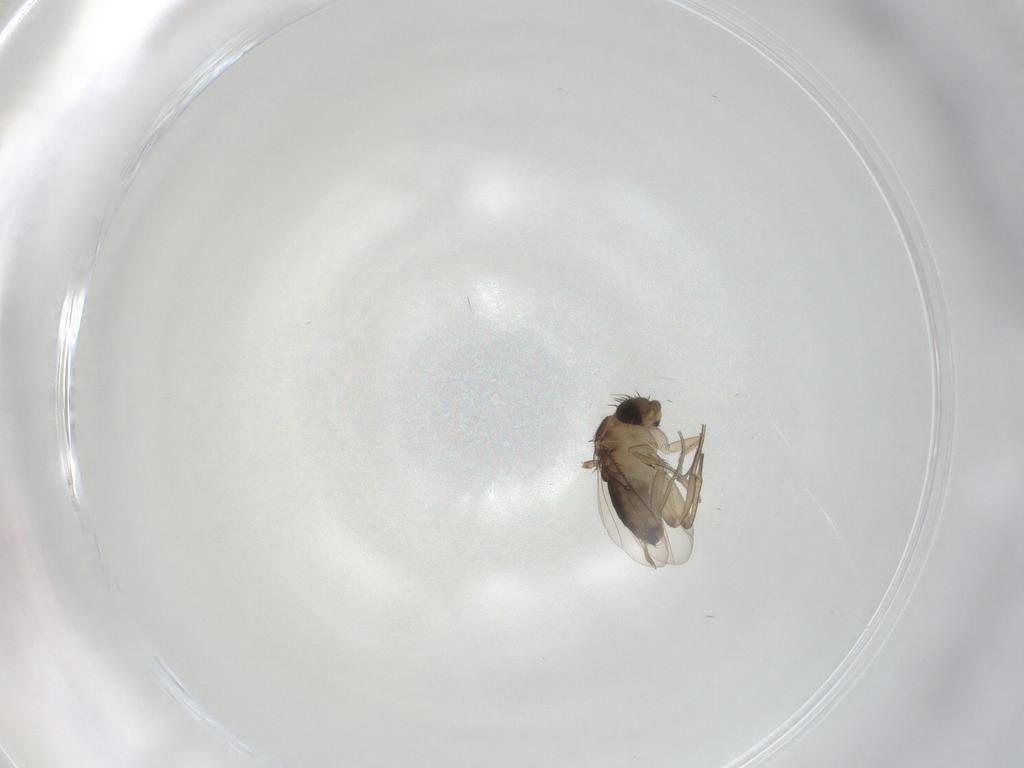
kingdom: Animalia
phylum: Arthropoda
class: Insecta
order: Diptera
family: Phoridae
